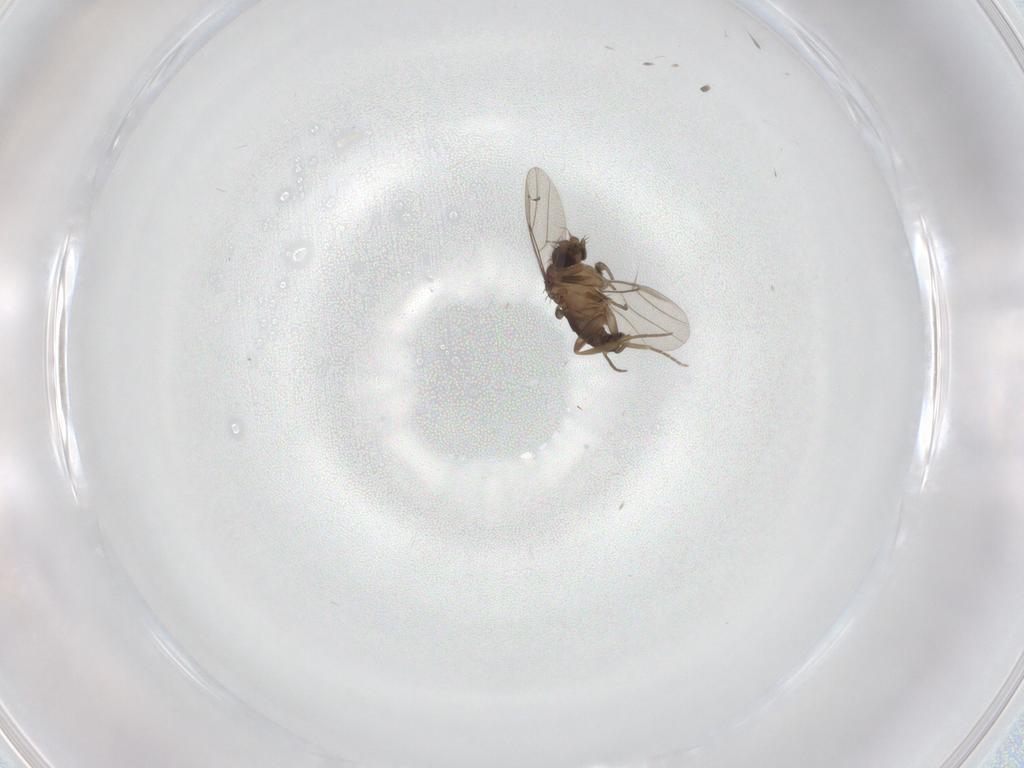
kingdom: Animalia
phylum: Arthropoda
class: Insecta
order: Diptera
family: Phoridae
